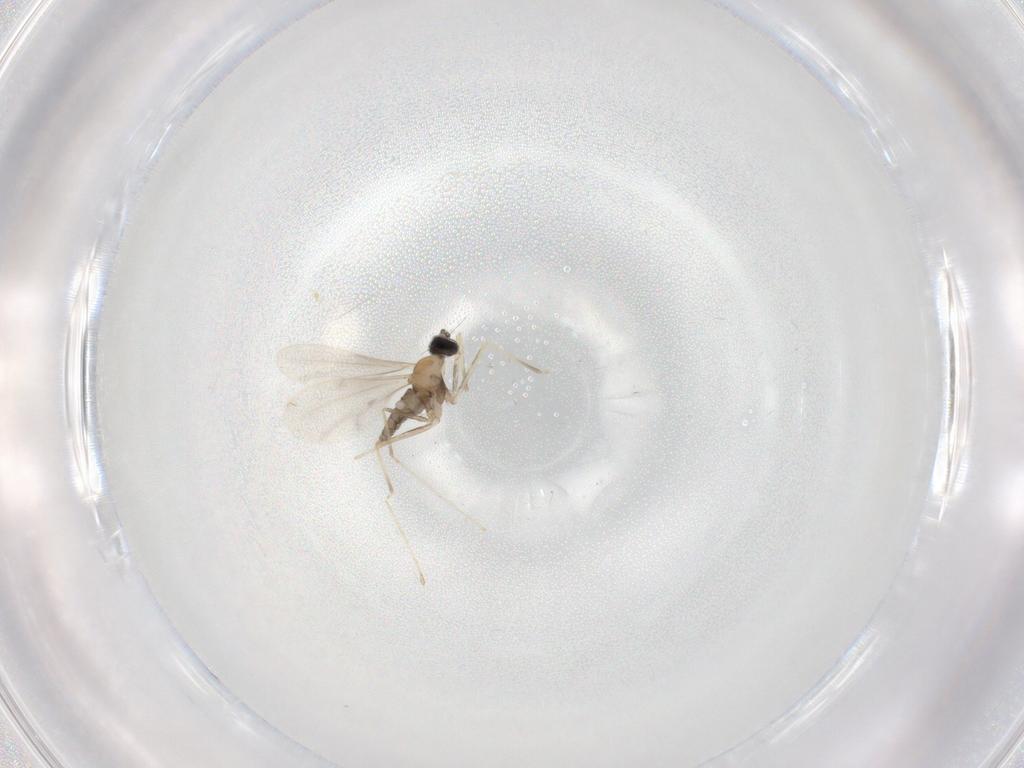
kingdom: Animalia
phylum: Arthropoda
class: Insecta
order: Diptera
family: Cecidomyiidae
